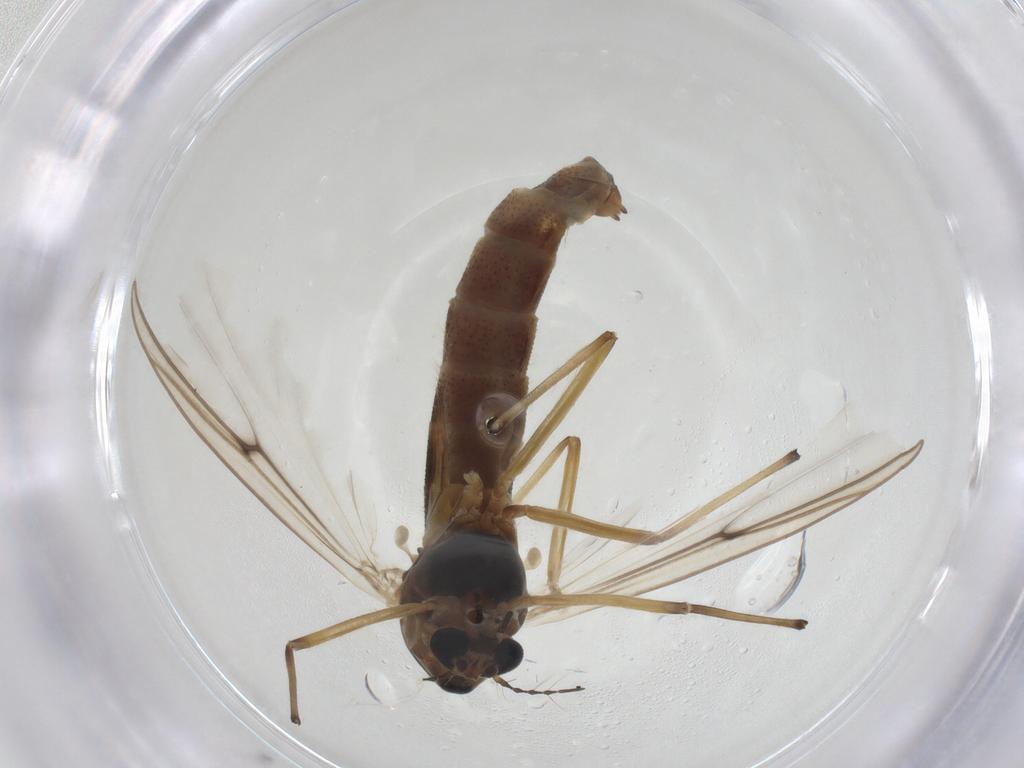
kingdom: Animalia
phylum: Arthropoda
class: Insecta
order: Diptera
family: Chironomidae
